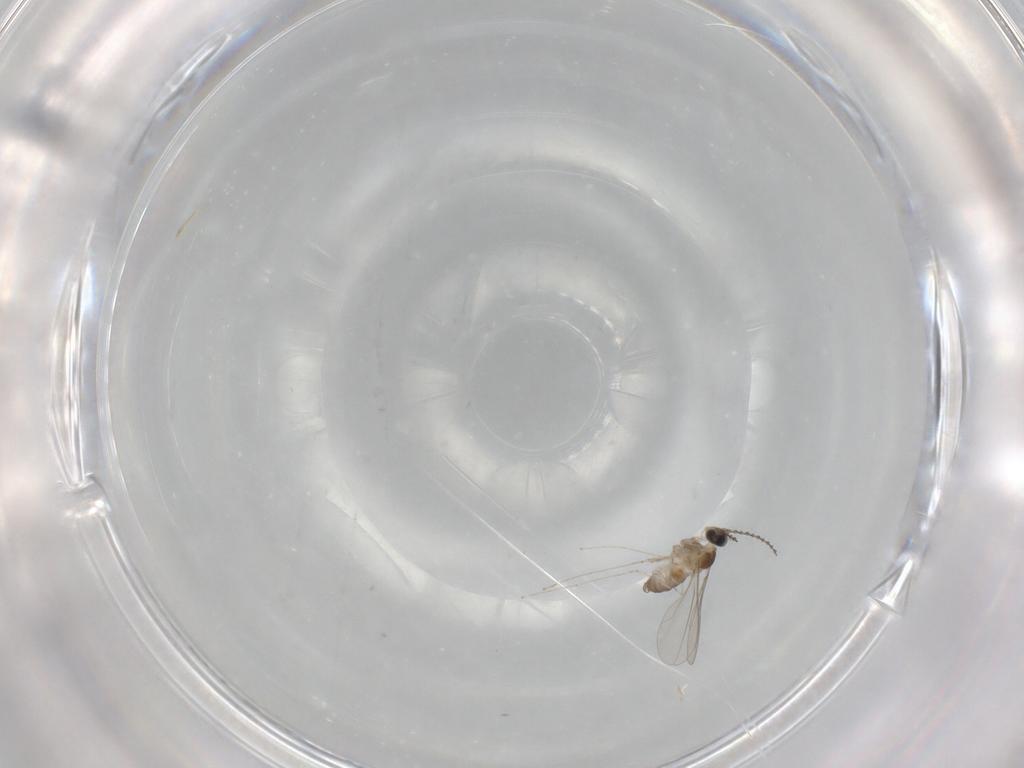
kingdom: Animalia
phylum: Arthropoda
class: Insecta
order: Diptera
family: Cecidomyiidae
